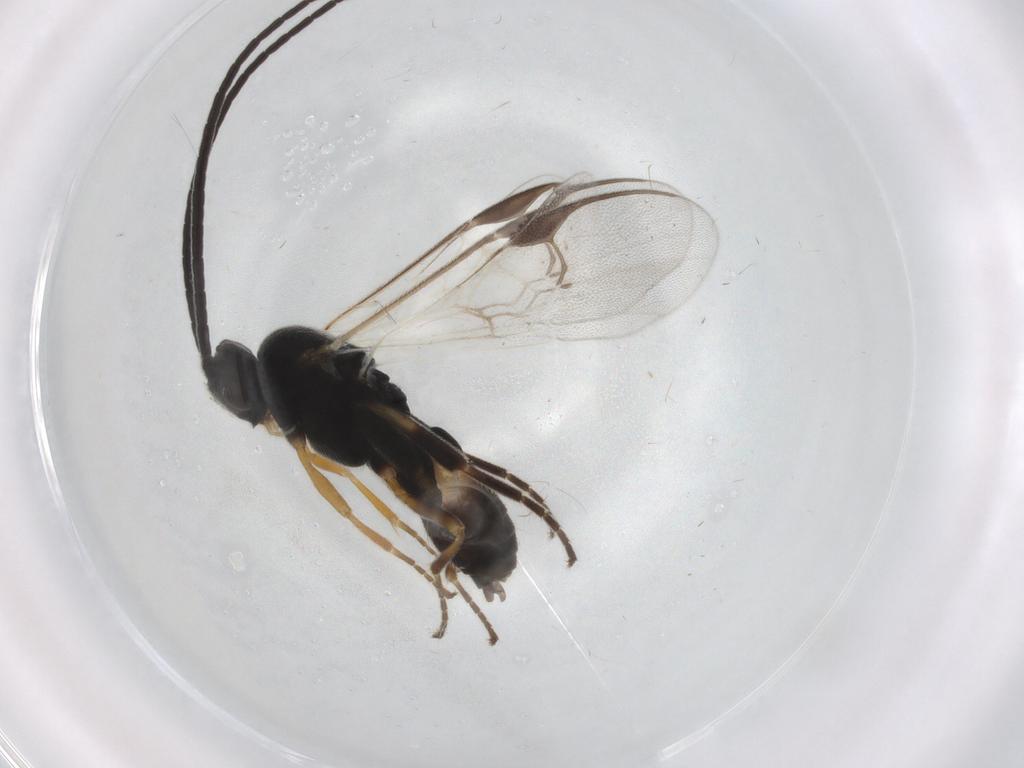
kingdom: Animalia
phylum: Arthropoda
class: Insecta
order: Hymenoptera
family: Braconidae
